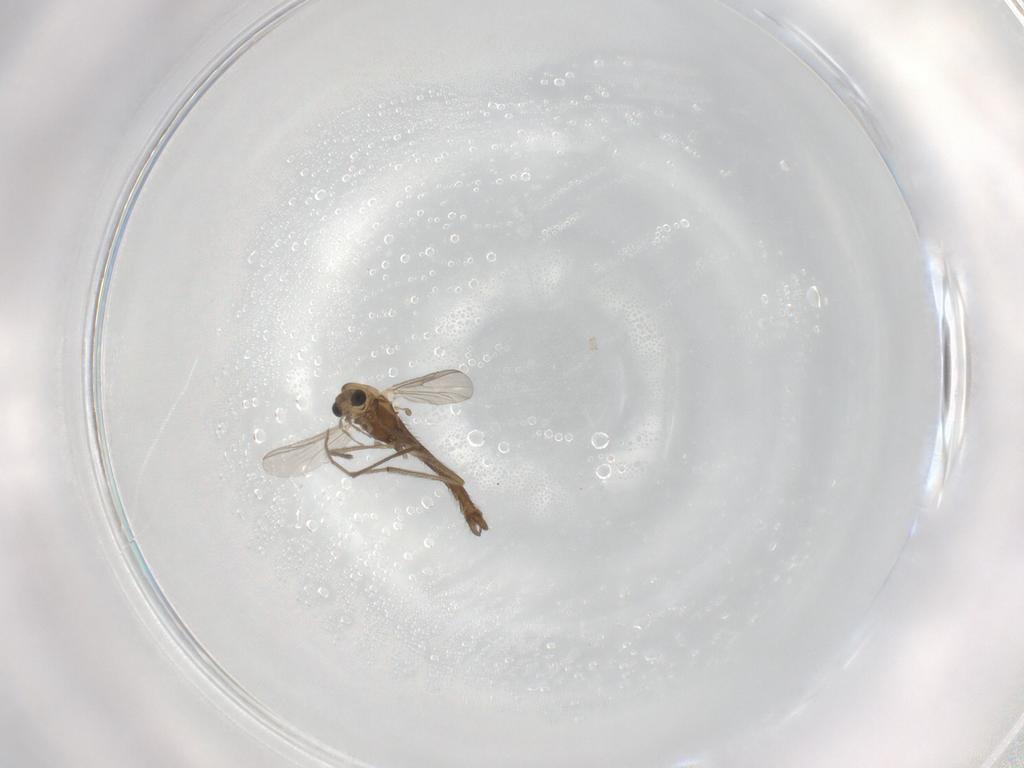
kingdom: Animalia
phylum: Arthropoda
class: Insecta
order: Diptera
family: Chironomidae
